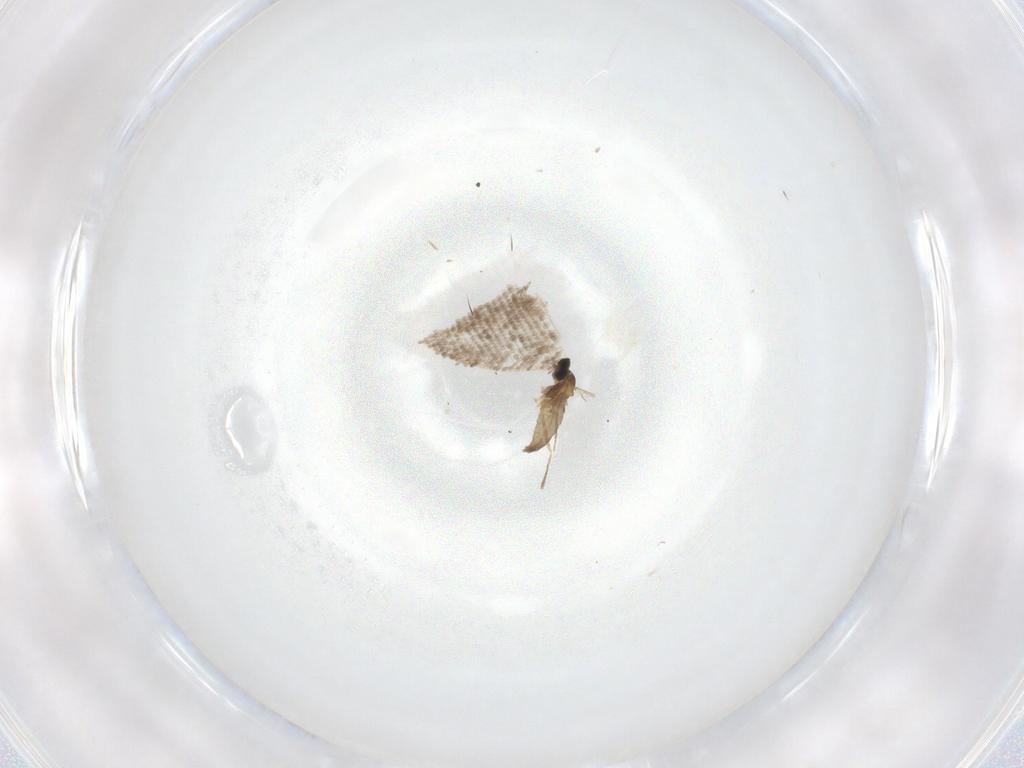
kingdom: Animalia
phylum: Arthropoda
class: Insecta
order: Diptera
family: Cecidomyiidae
